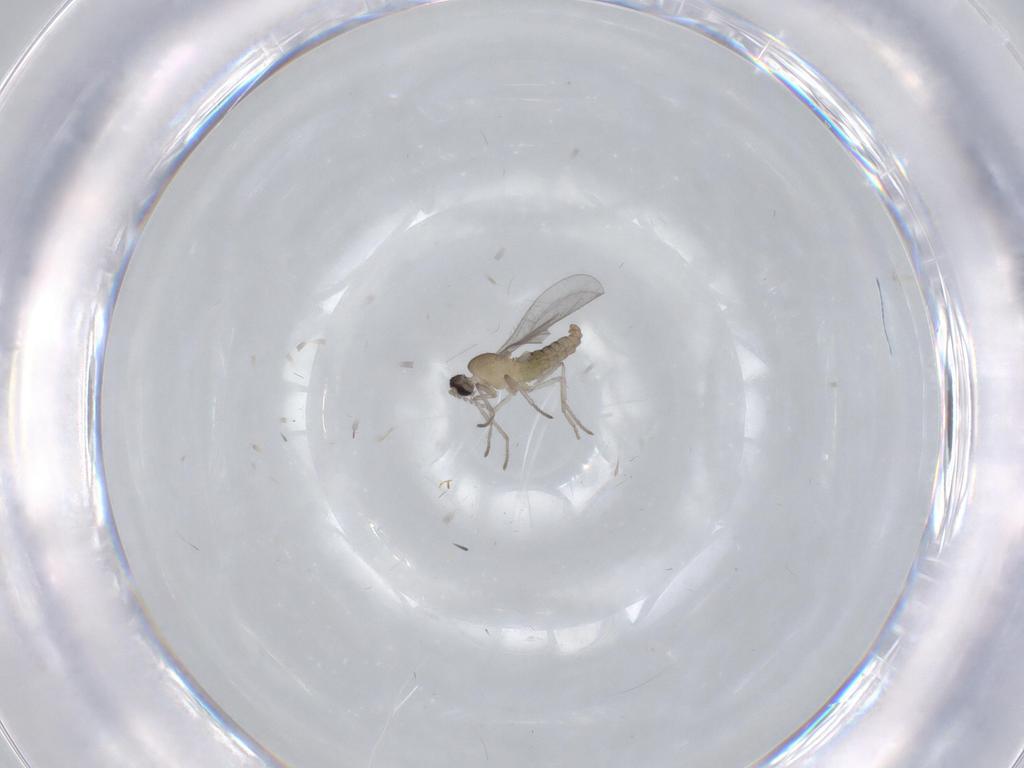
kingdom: Animalia
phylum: Arthropoda
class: Insecta
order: Diptera
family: Cecidomyiidae
